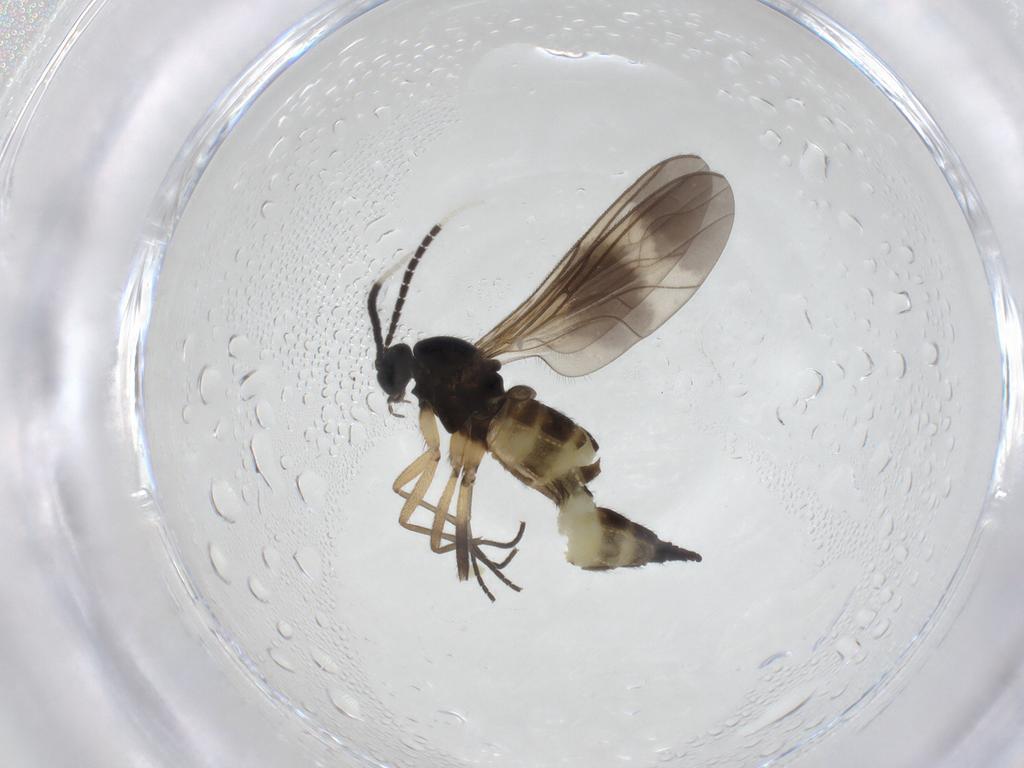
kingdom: Animalia
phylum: Arthropoda
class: Insecta
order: Diptera
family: Sciaridae
